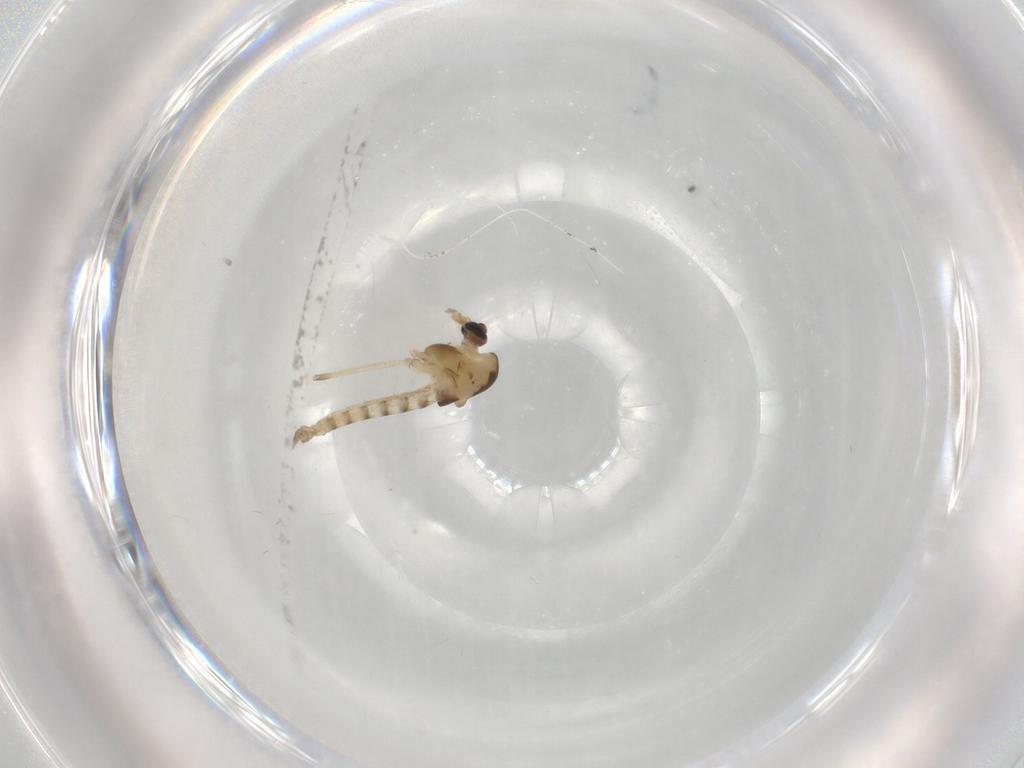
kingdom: Animalia
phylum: Arthropoda
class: Insecta
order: Diptera
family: Chironomidae
